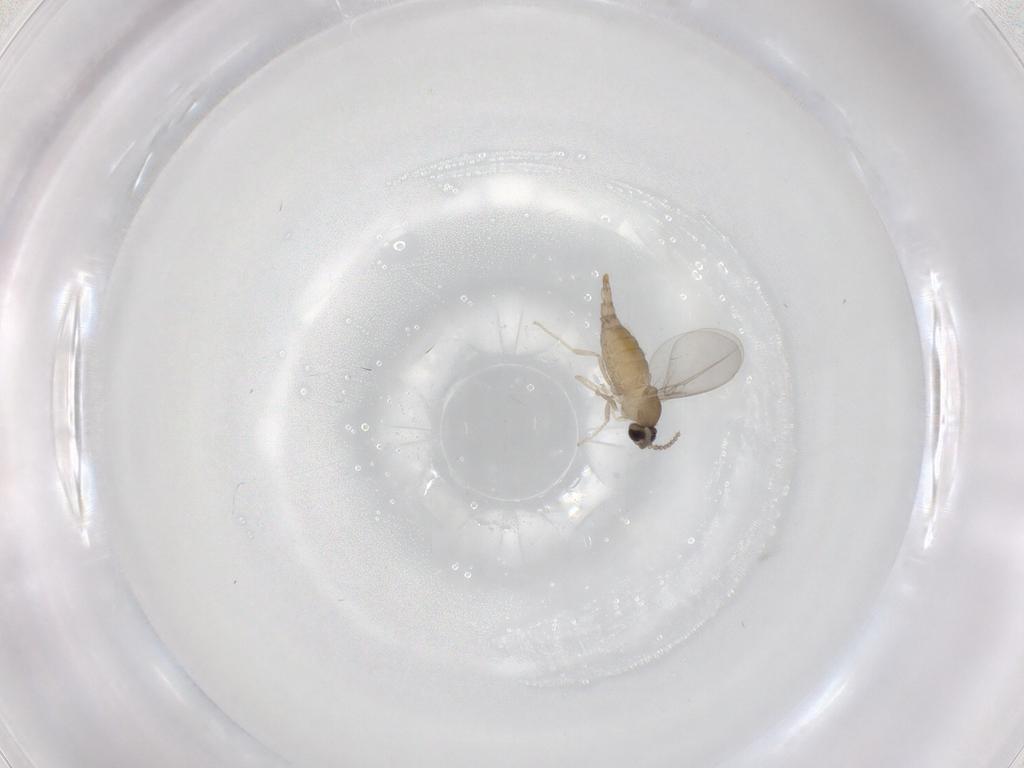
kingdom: Animalia
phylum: Arthropoda
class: Insecta
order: Diptera
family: Cecidomyiidae
